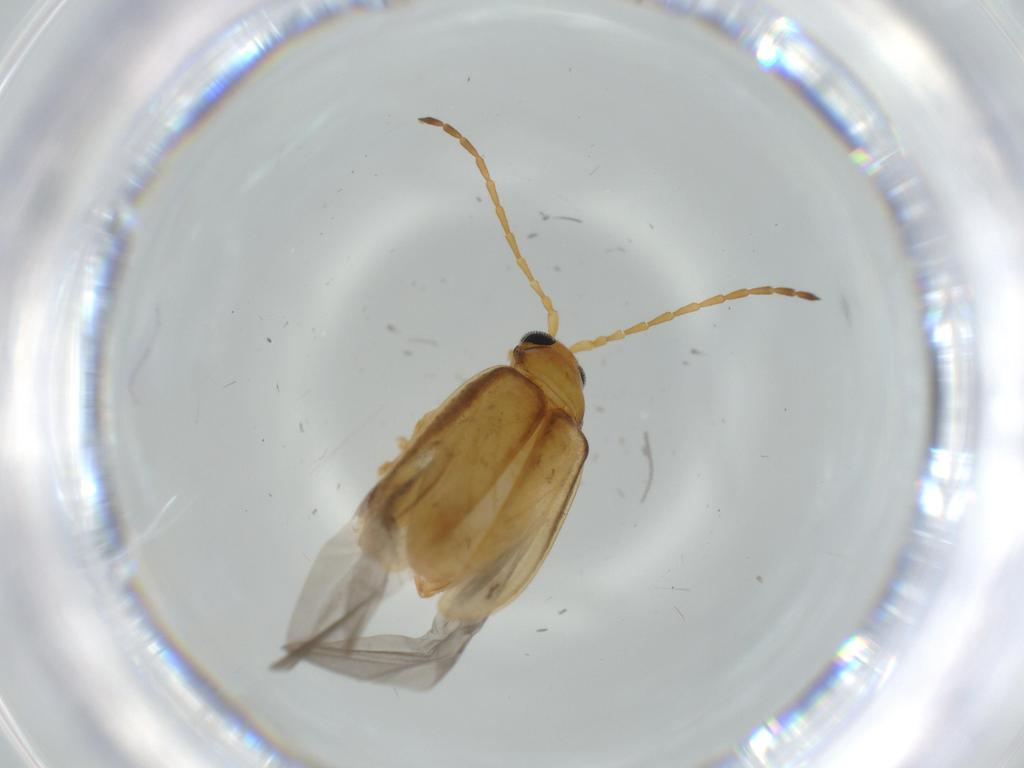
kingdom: Animalia
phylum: Arthropoda
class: Insecta
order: Coleoptera
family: Chrysomelidae
